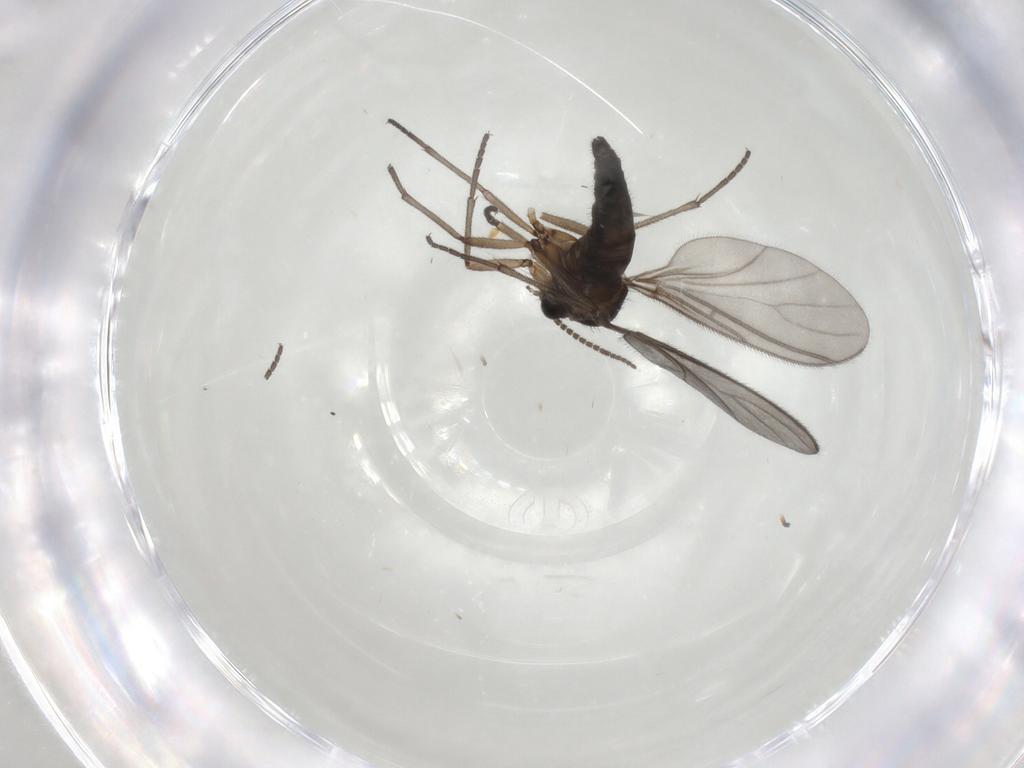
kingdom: Animalia
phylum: Arthropoda
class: Insecta
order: Diptera
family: Sciaridae
